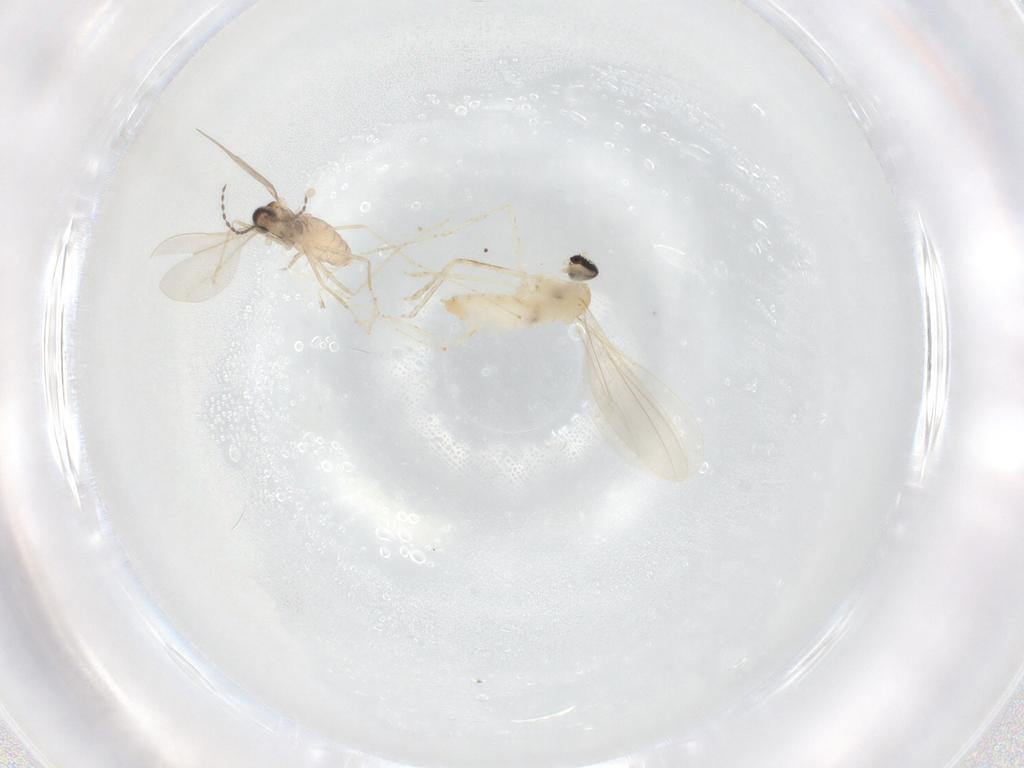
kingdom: Animalia
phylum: Arthropoda
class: Insecta
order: Diptera
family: Cecidomyiidae
